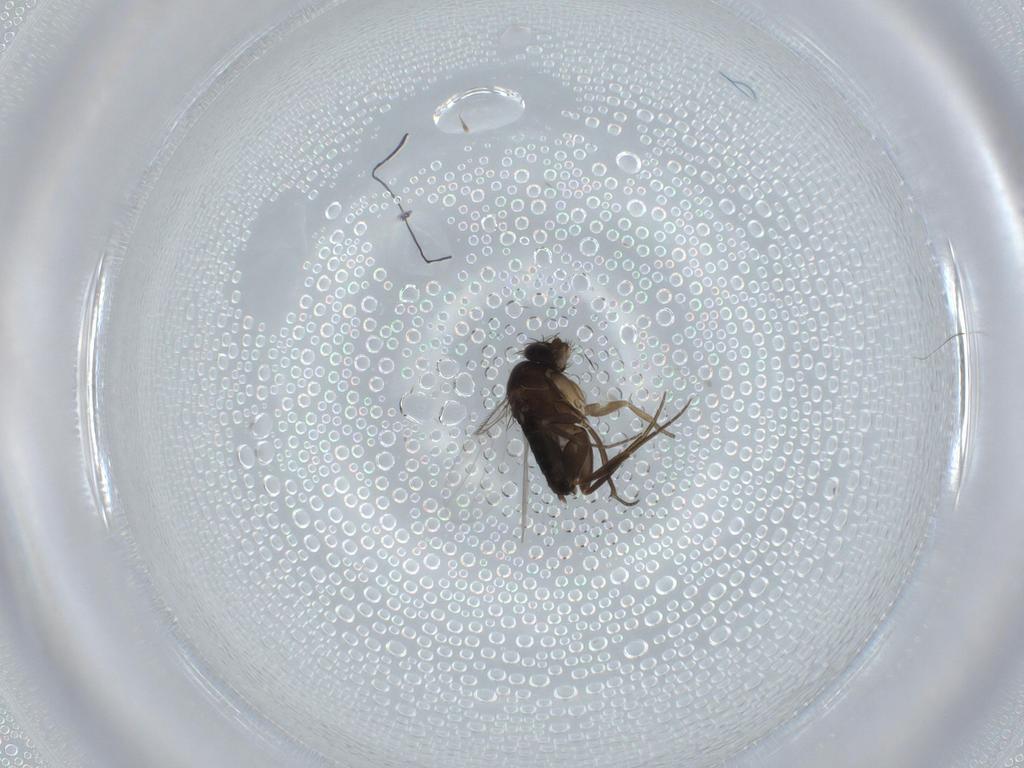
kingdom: Animalia
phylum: Arthropoda
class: Insecta
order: Diptera
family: Phoridae
